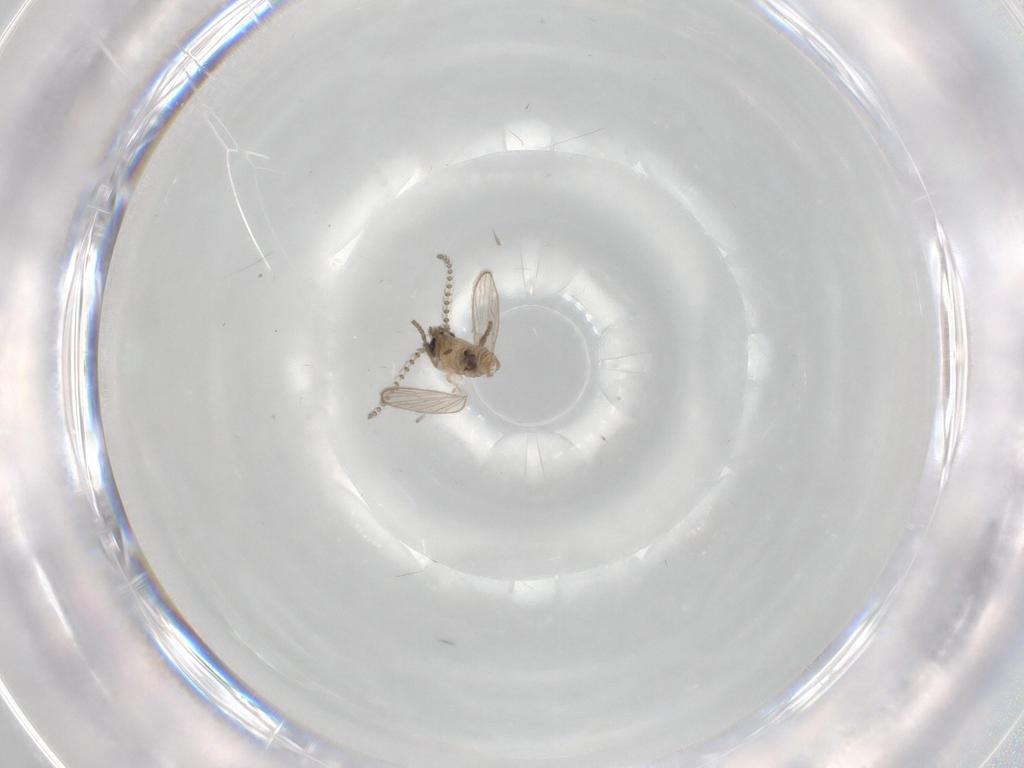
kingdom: Animalia
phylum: Arthropoda
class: Insecta
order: Diptera
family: Psychodidae
